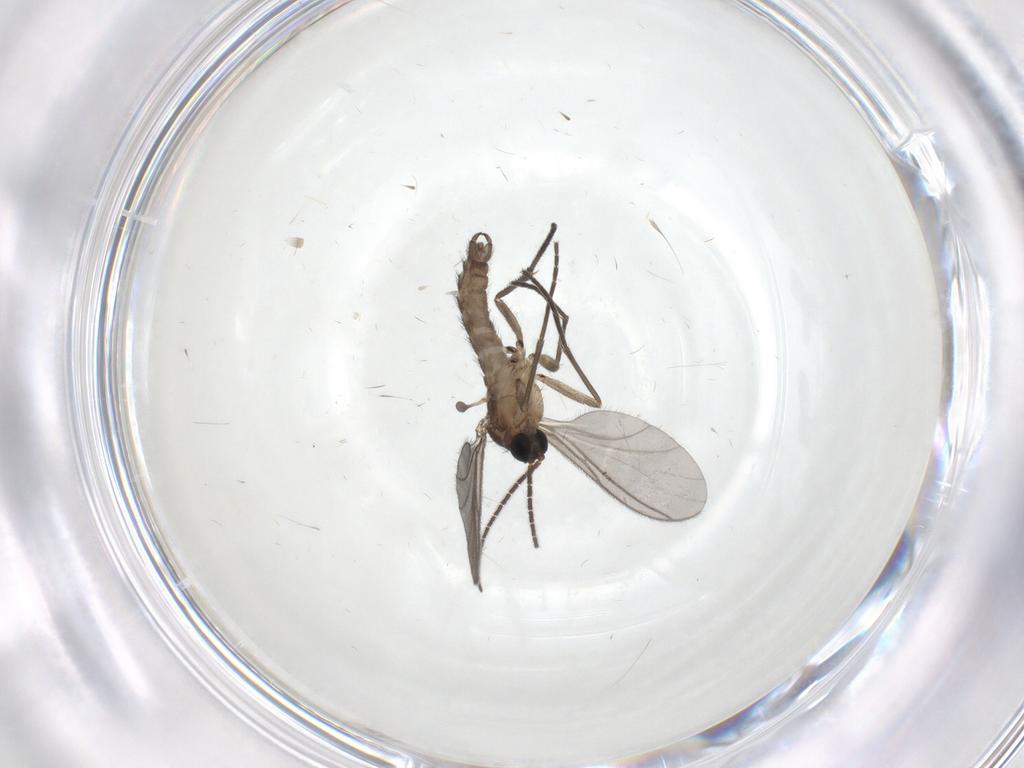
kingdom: Animalia
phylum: Arthropoda
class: Insecta
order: Diptera
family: Sciaridae
